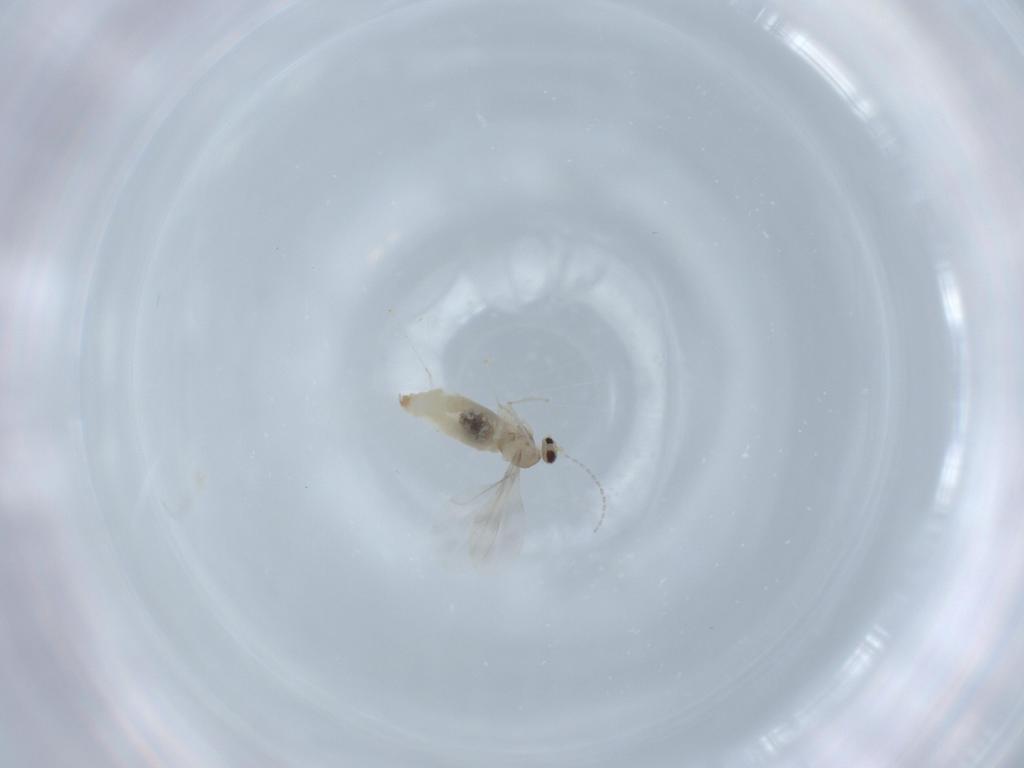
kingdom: Animalia
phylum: Arthropoda
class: Insecta
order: Diptera
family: Cecidomyiidae
